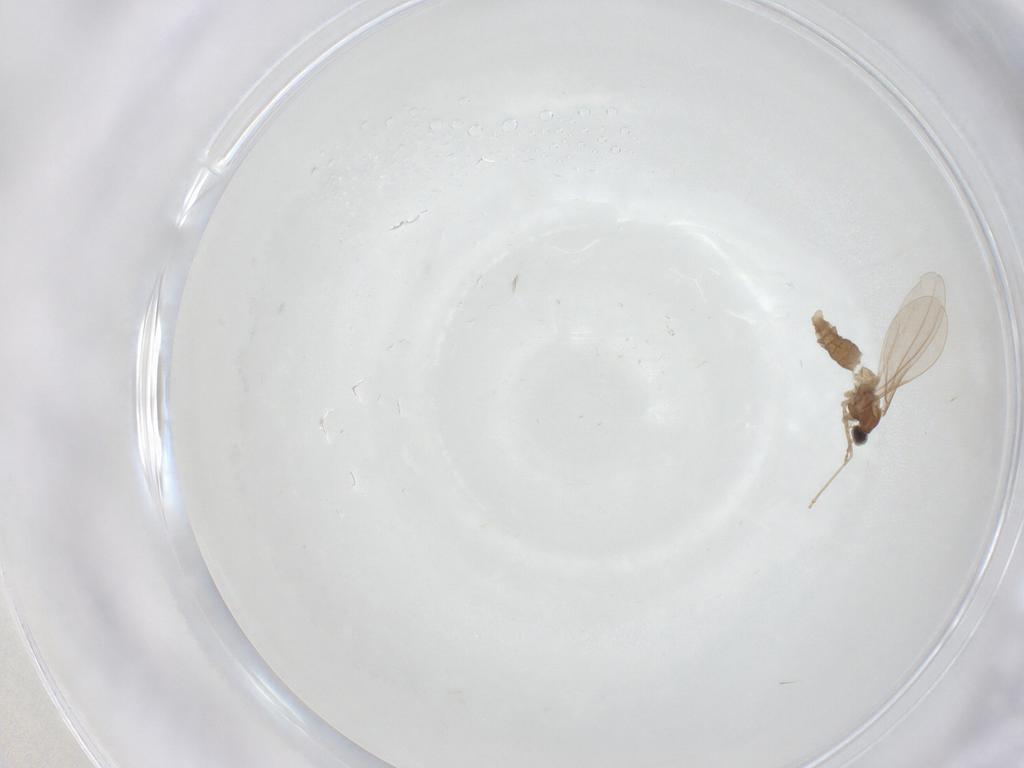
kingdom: Animalia
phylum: Arthropoda
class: Insecta
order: Diptera
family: Cecidomyiidae
